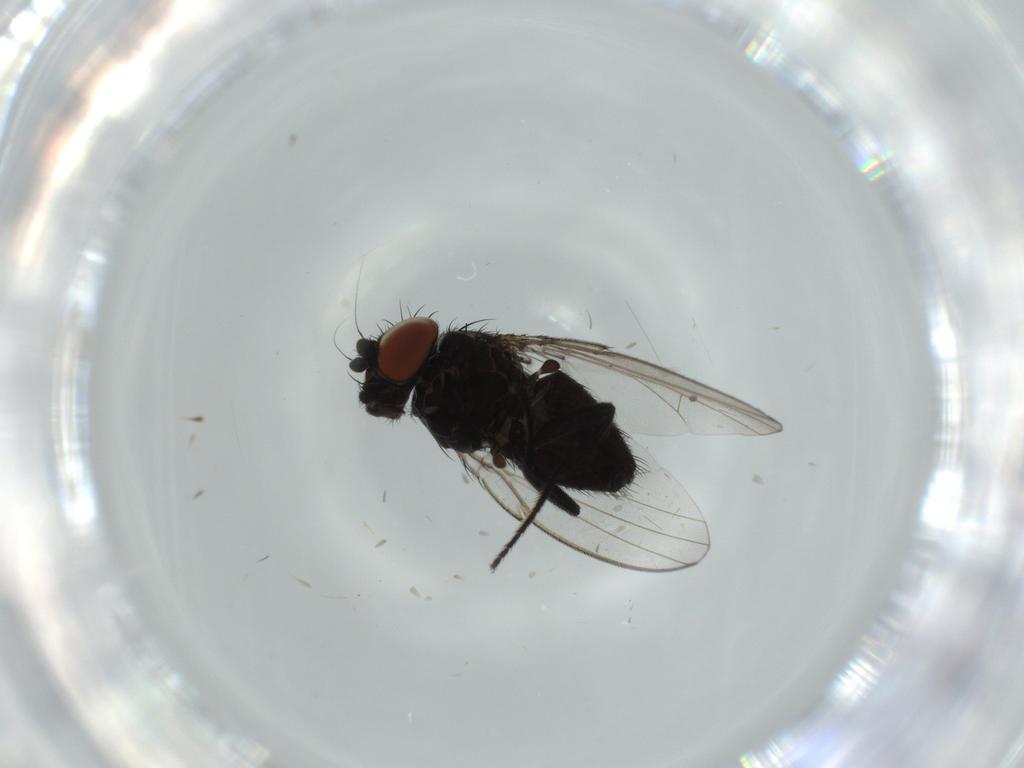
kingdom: Animalia
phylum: Arthropoda
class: Insecta
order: Diptera
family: Milichiidae
